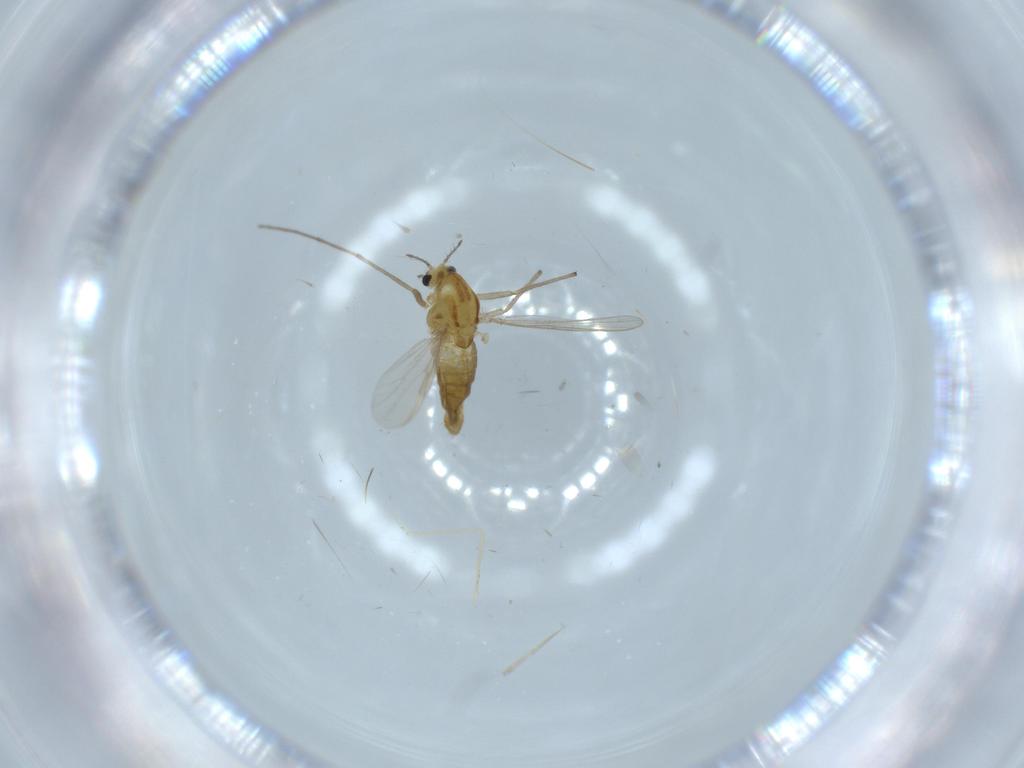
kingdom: Animalia
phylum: Arthropoda
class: Insecta
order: Diptera
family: Chironomidae
